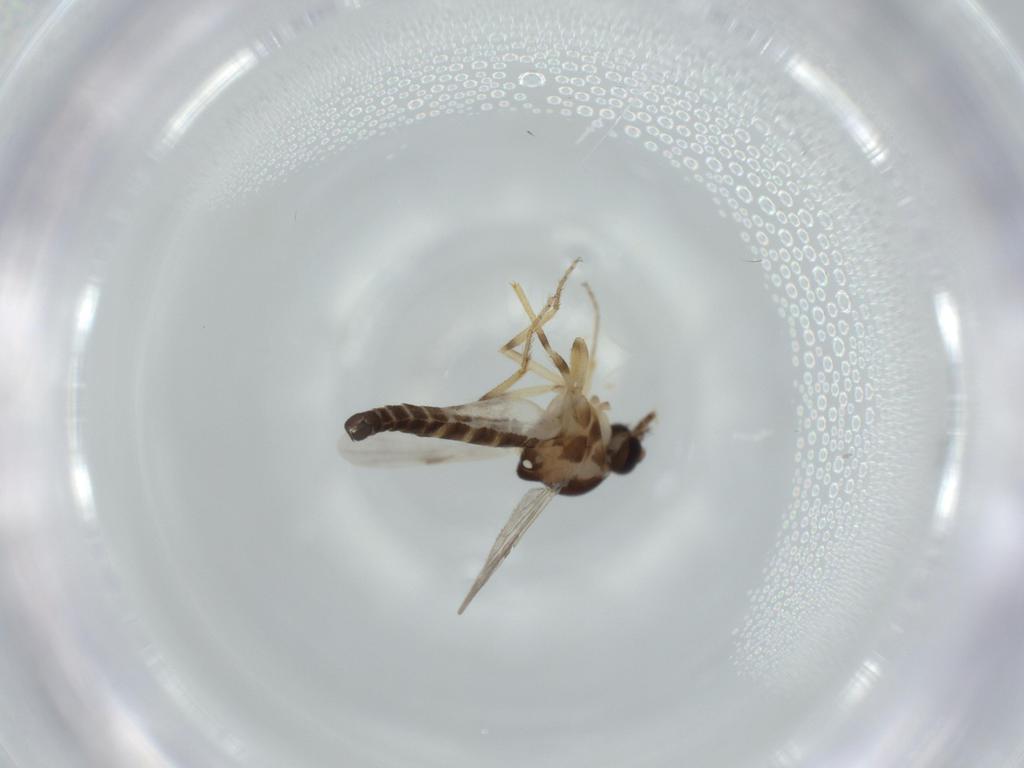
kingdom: Animalia
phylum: Arthropoda
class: Insecta
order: Diptera
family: Ceratopogonidae
